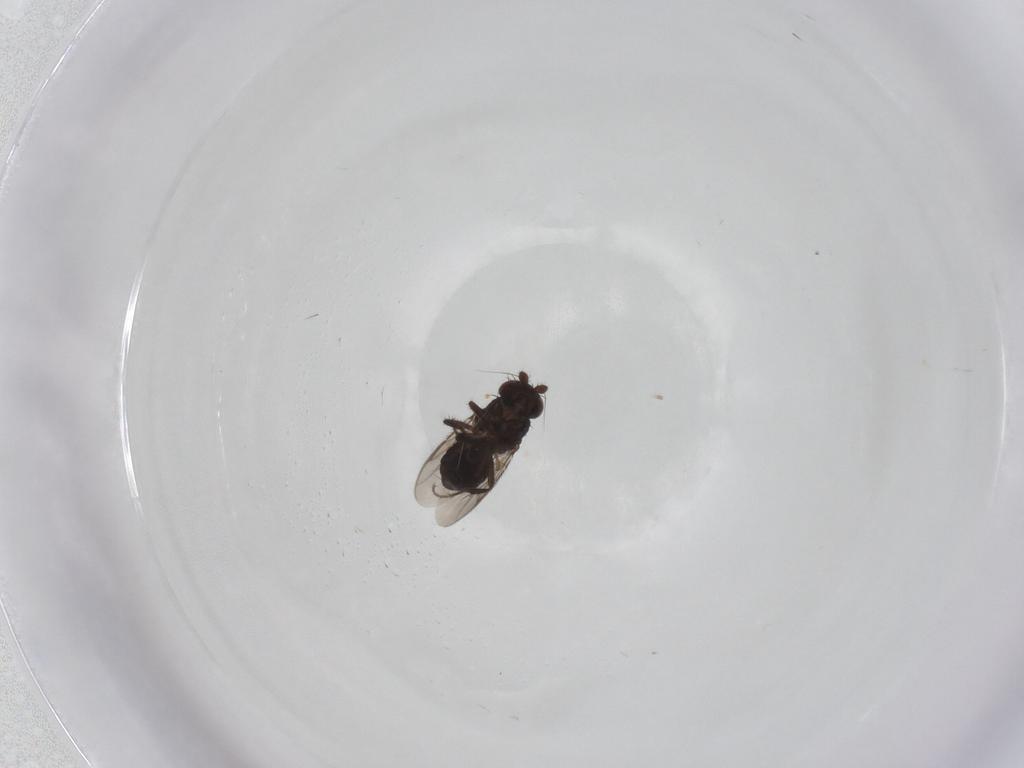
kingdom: Animalia
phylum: Arthropoda
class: Insecta
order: Diptera
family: Sphaeroceridae
